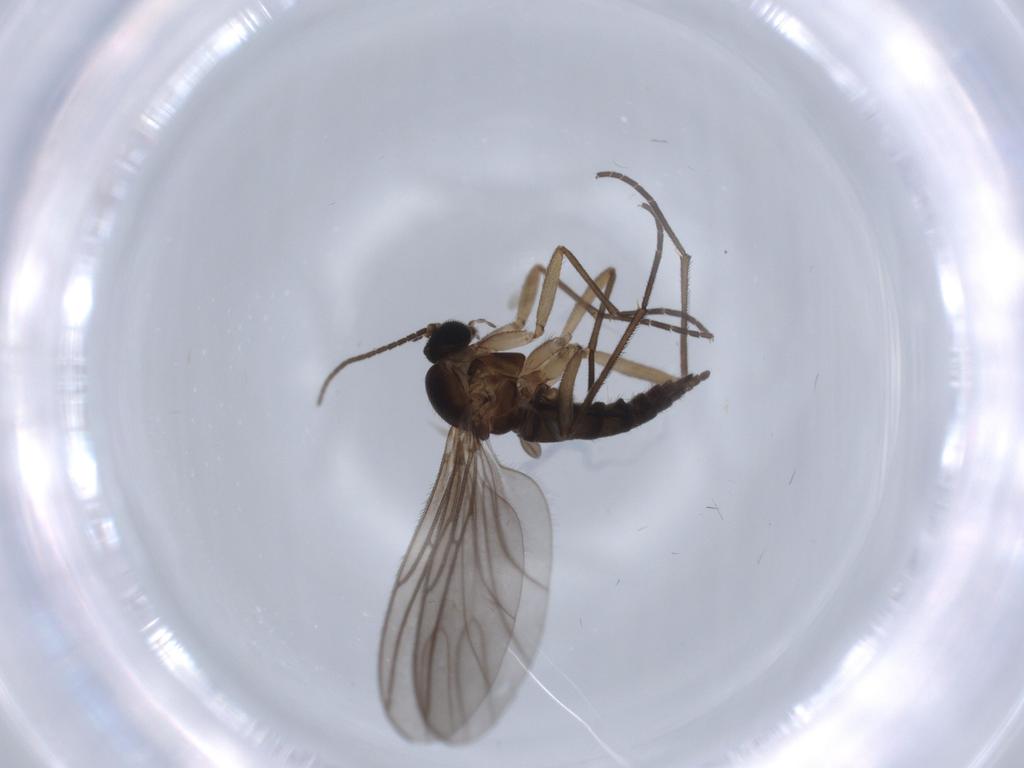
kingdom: Animalia
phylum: Arthropoda
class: Insecta
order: Diptera
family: Sciaridae
